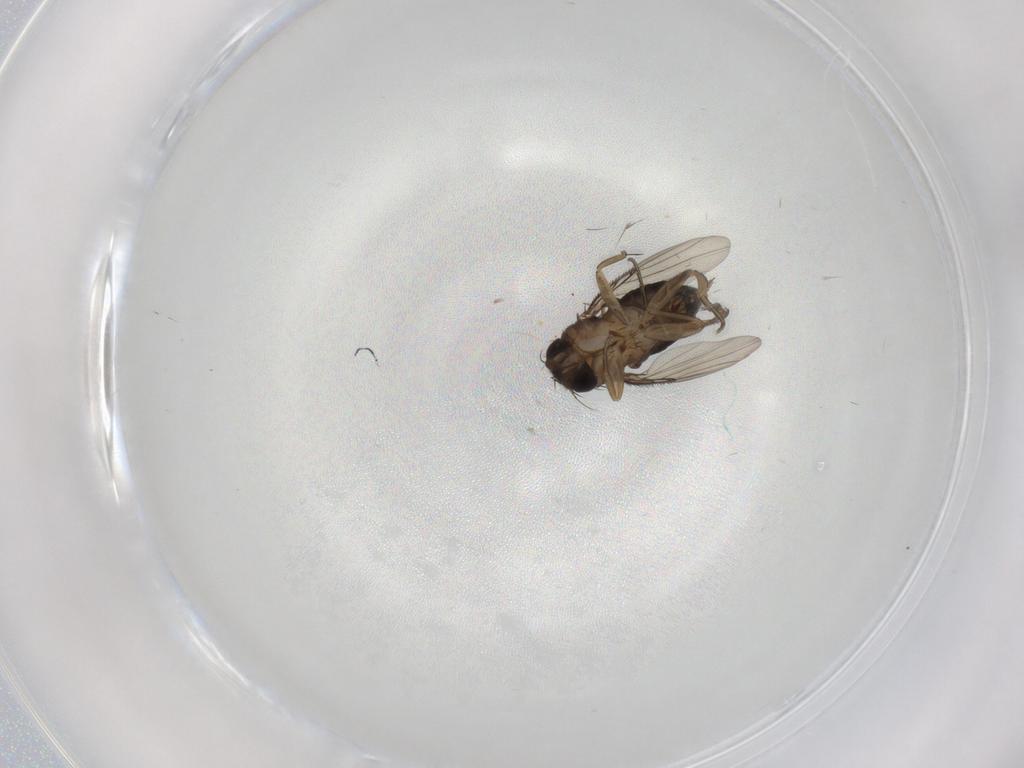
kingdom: Animalia
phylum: Arthropoda
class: Insecta
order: Diptera
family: Phoridae
